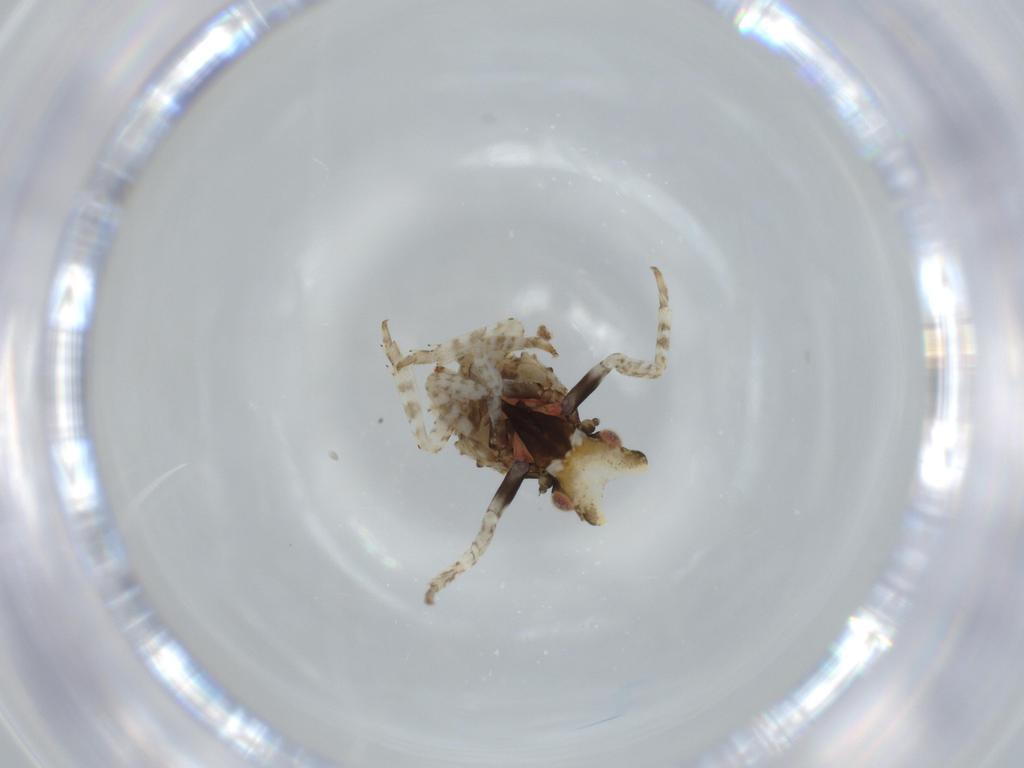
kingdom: Animalia
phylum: Arthropoda
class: Insecta
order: Hemiptera
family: Fulgoridae
